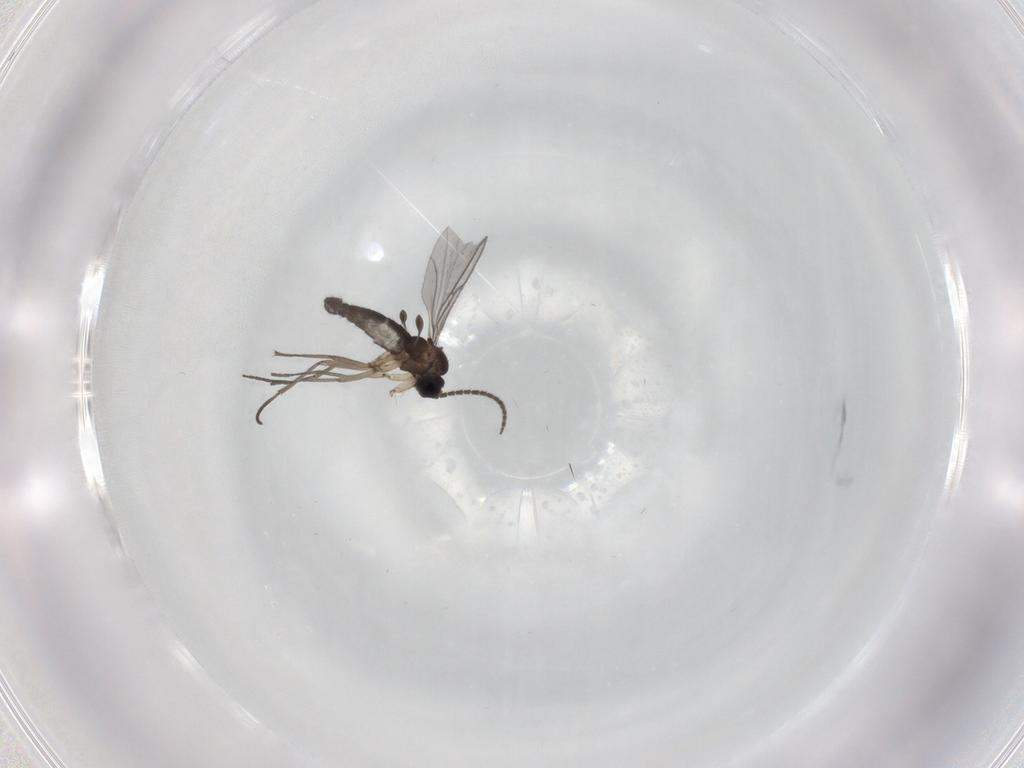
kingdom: Animalia
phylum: Arthropoda
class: Insecta
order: Diptera
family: Sciaridae
